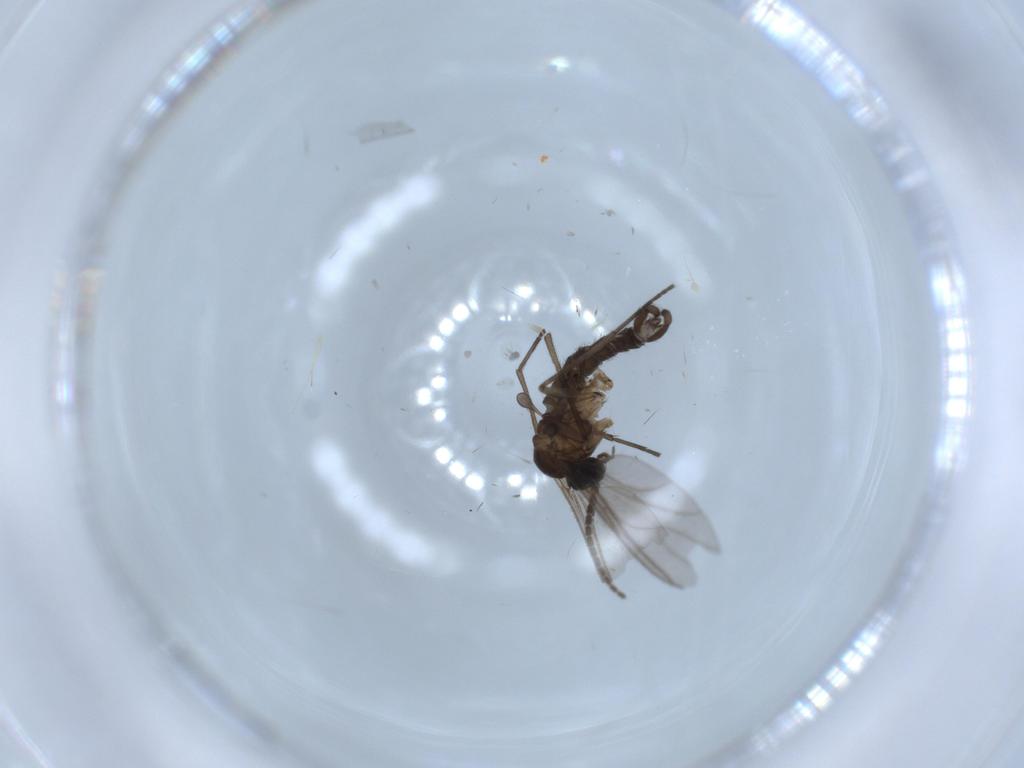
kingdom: Animalia
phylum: Arthropoda
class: Insecta
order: Diptera
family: Sciaridae
